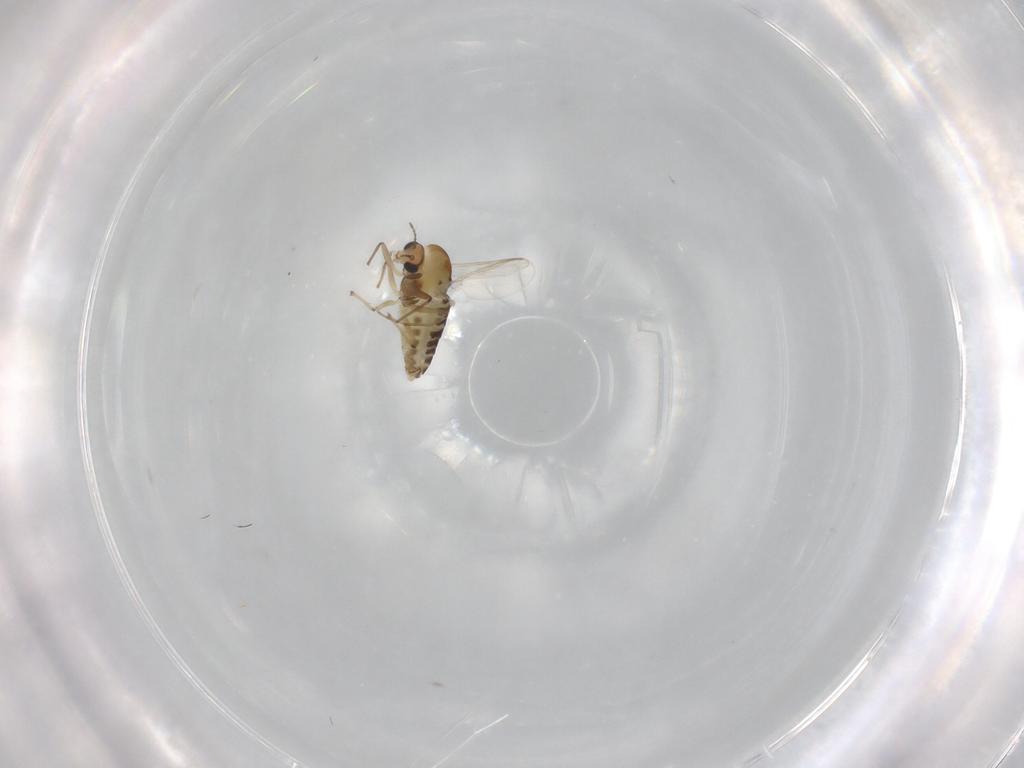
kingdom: Animalia
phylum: Arthropoda
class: Insecta
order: Diptera
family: Chironomidae
